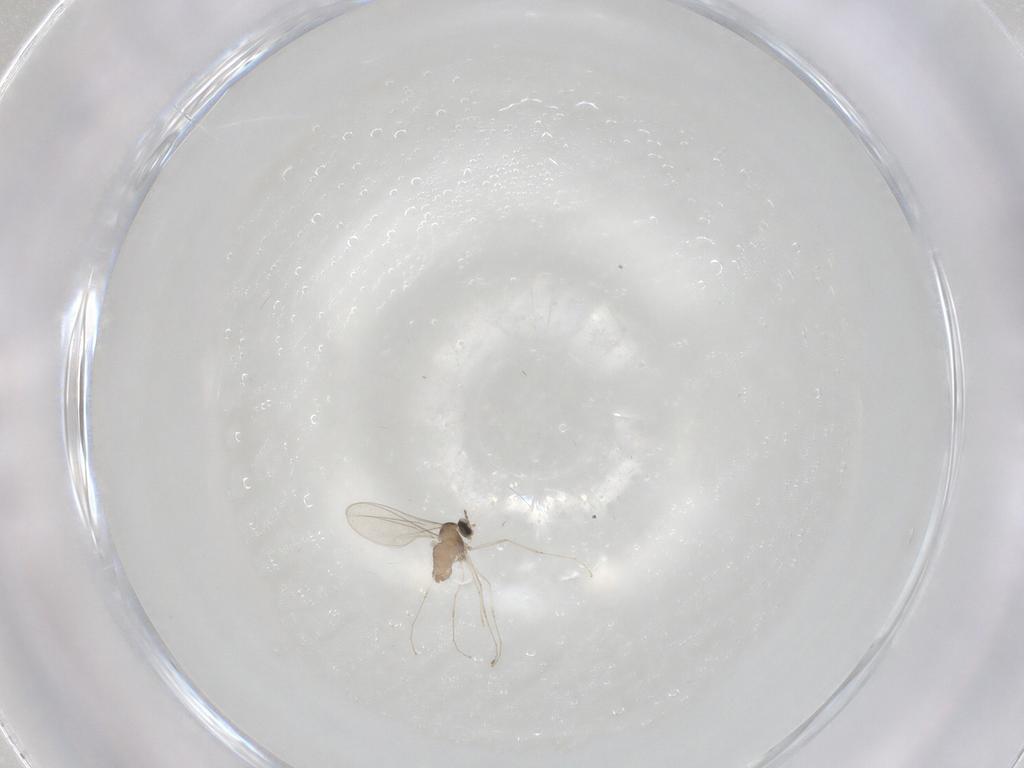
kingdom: Animalia
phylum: Arthropoda
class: Insecta
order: Diptera
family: Cecidomyiidae
